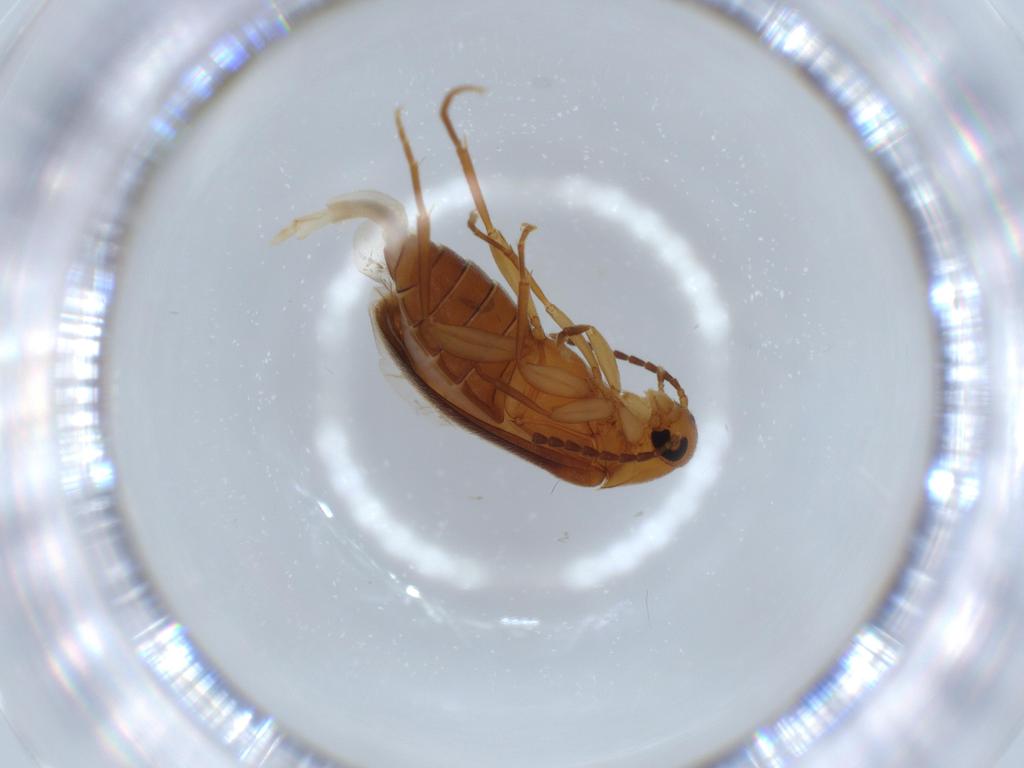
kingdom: Animalia
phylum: Arthropoda
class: Insecta
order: Coleoptera
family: Scraptiidae
